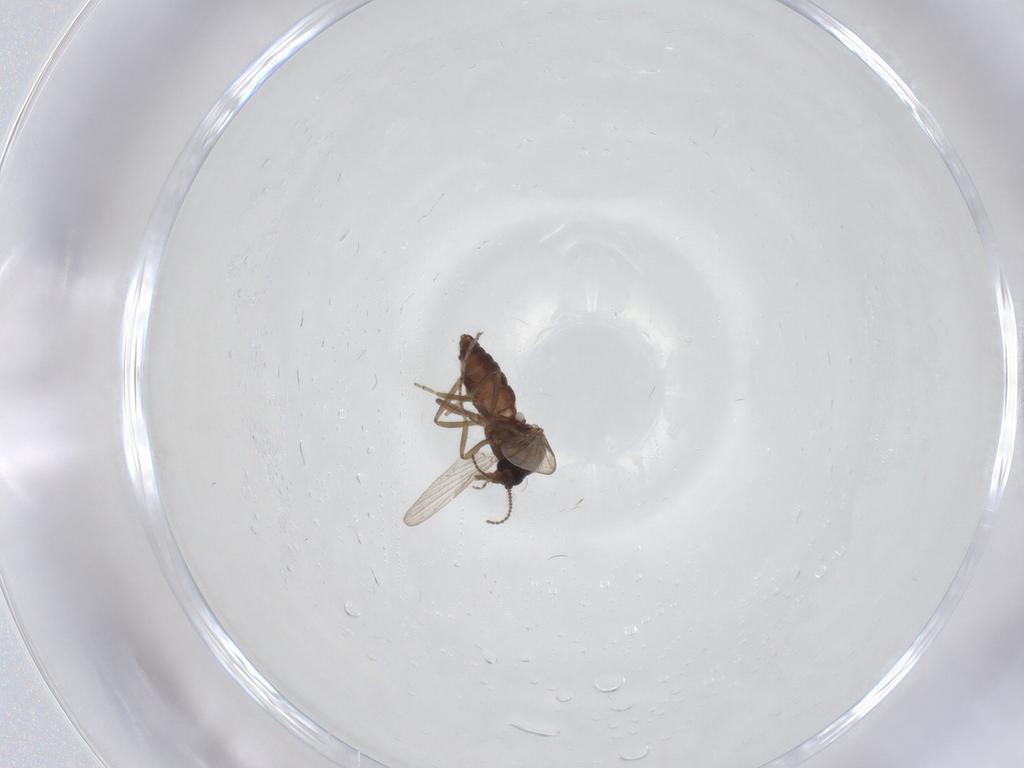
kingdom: Animalia
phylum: Arthropoda
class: Insecta
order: Diptera
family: Ceratopogonidae
